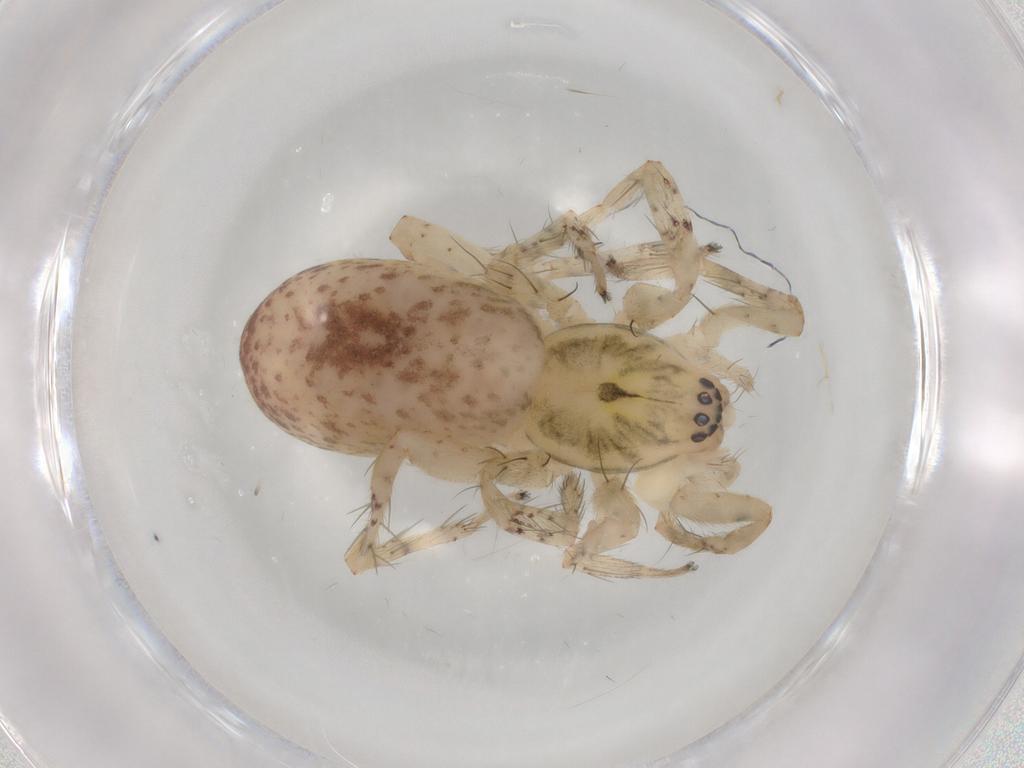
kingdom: Animalia
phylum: Arthropoda
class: Arachnida
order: Araneae
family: Anyphaenidae
